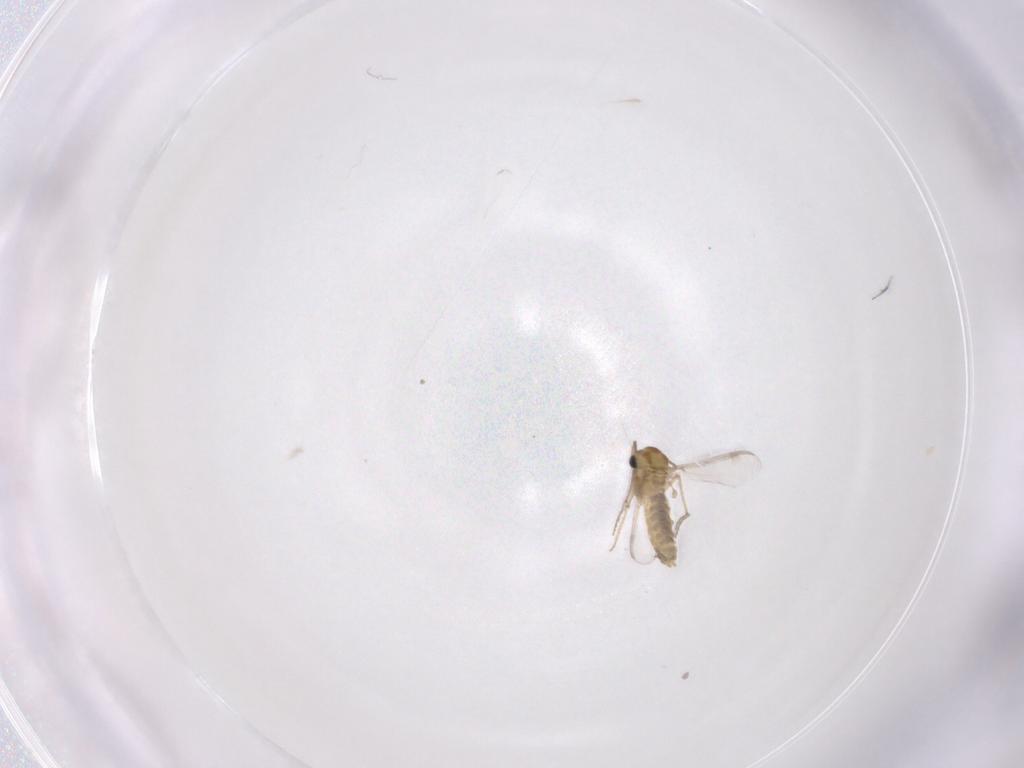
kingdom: Animalia
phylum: Arthropoda
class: Insecta
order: Diptera
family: Chironomidae
